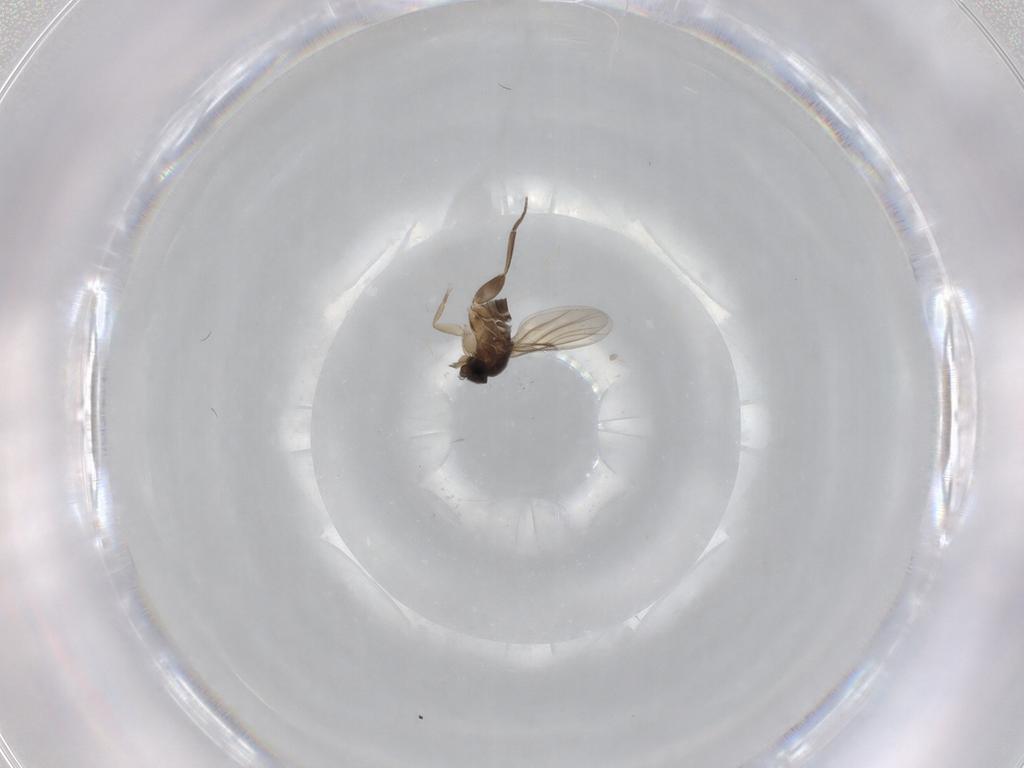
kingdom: Animalia
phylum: Arthropoda
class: Insecta
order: Diptera
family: Phoridae
